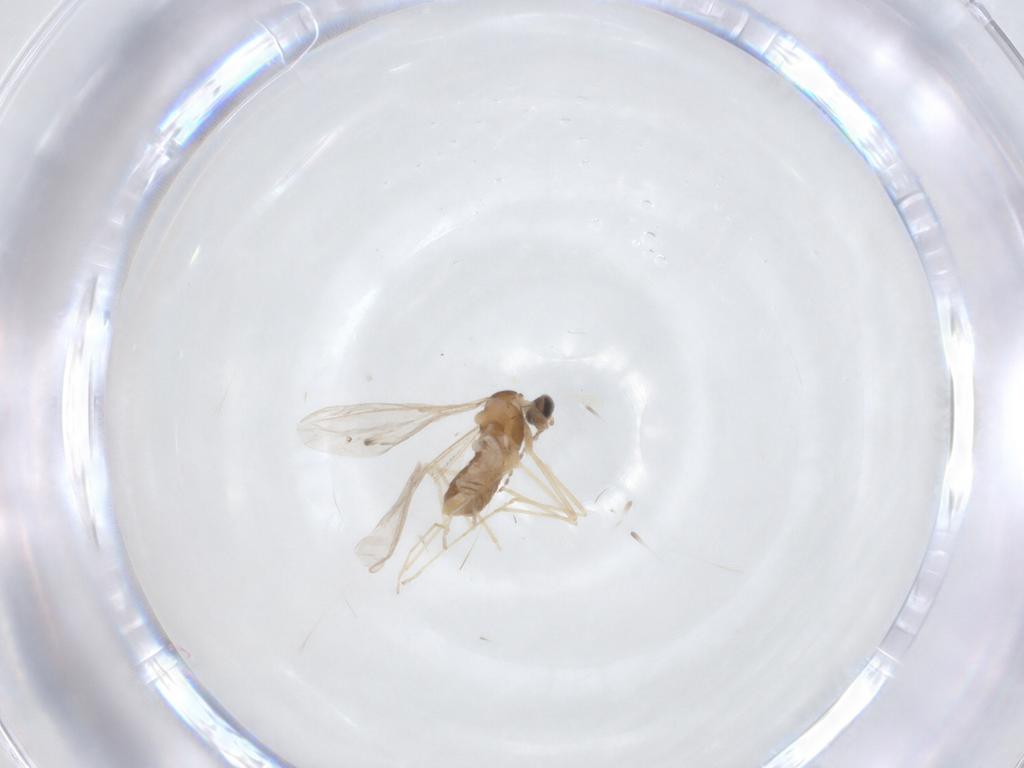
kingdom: Animalia
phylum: Arthropoda
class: Insecta
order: Diptera
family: Cecidomyiidae
